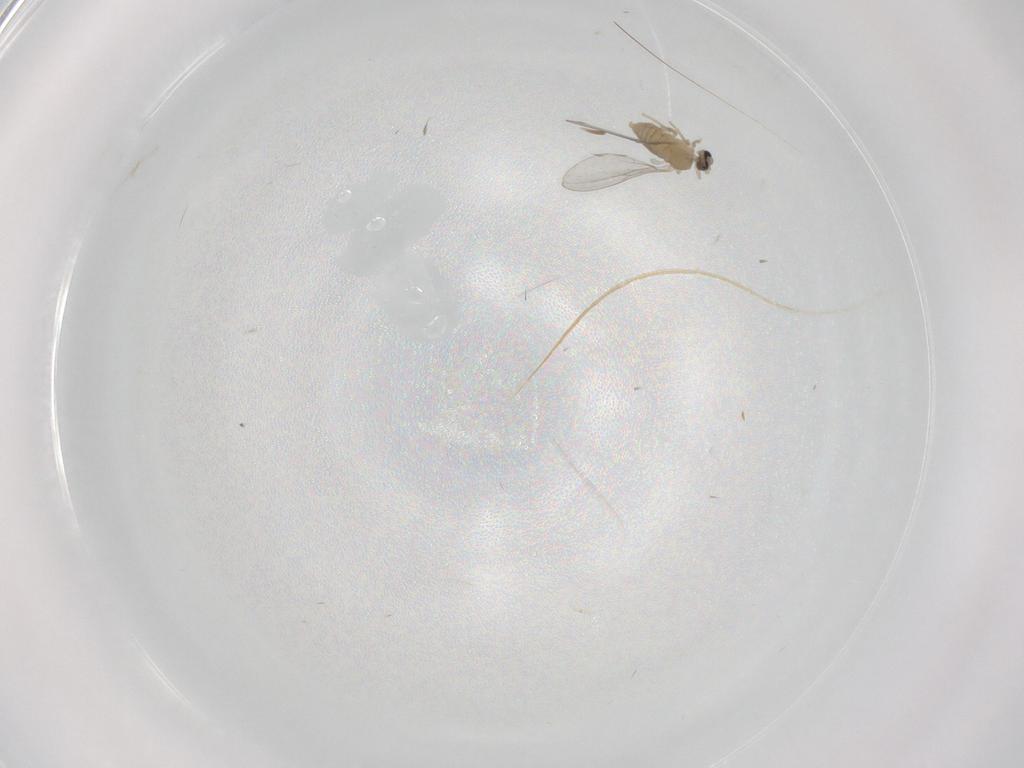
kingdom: Animalia
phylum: Arthropoda
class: Insecta
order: Diptera
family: Cecidomyiidae
